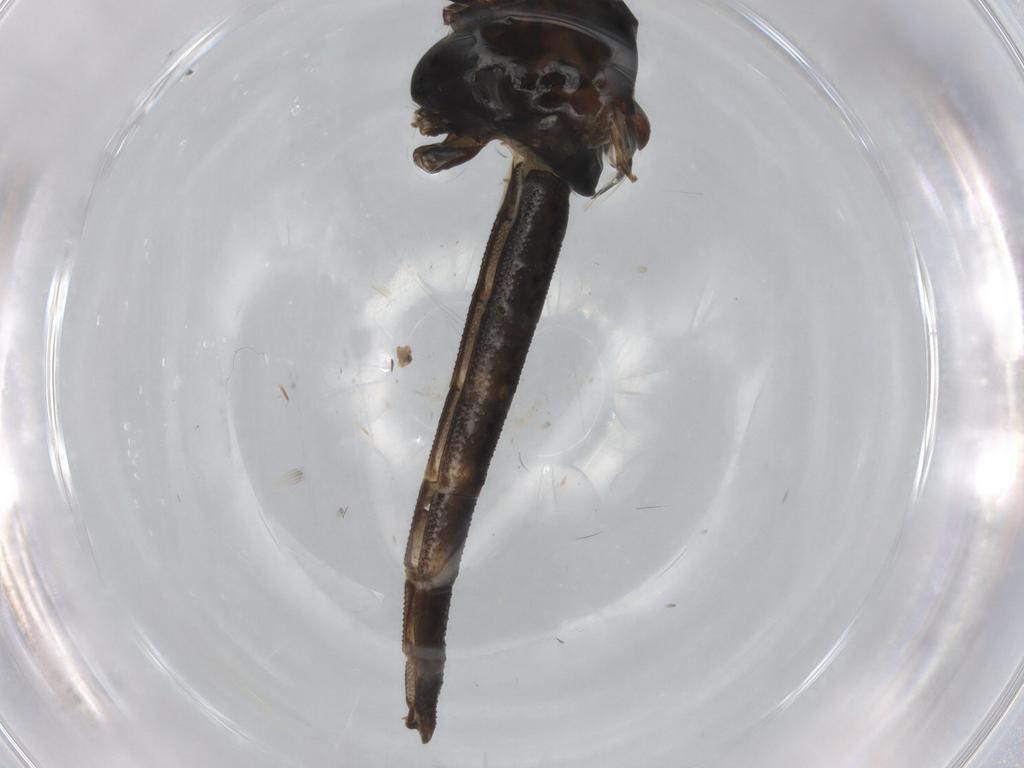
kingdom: Animalia
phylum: Arthropoda
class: Insecta
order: Diptera
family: Chironomidae
